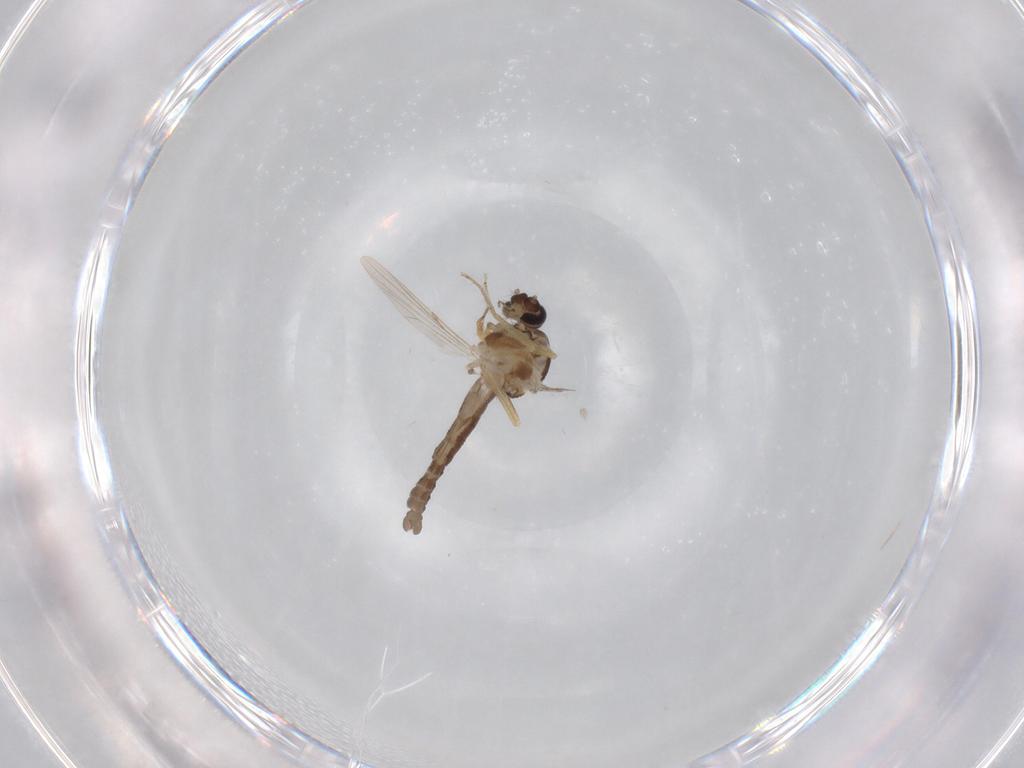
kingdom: Animalia
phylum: Arthropoda
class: Insecta
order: Diptera
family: Ceratopogonidae
